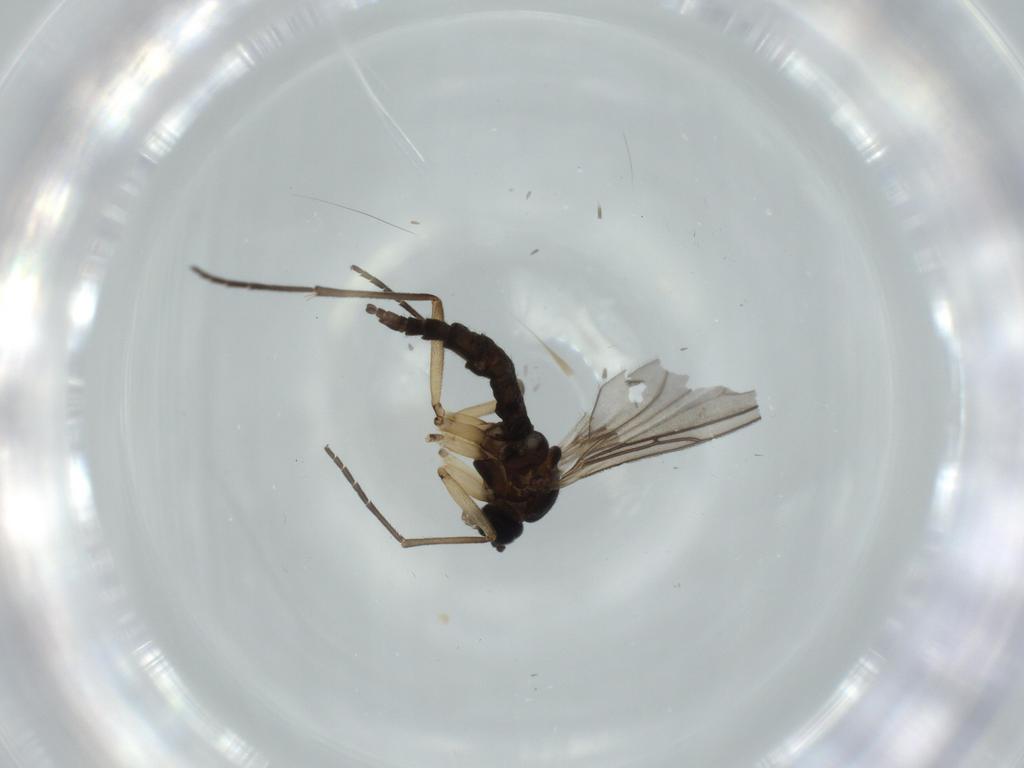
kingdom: Animalia
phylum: Arthropoda
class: Insecta
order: Diptera
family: Sciaridae
